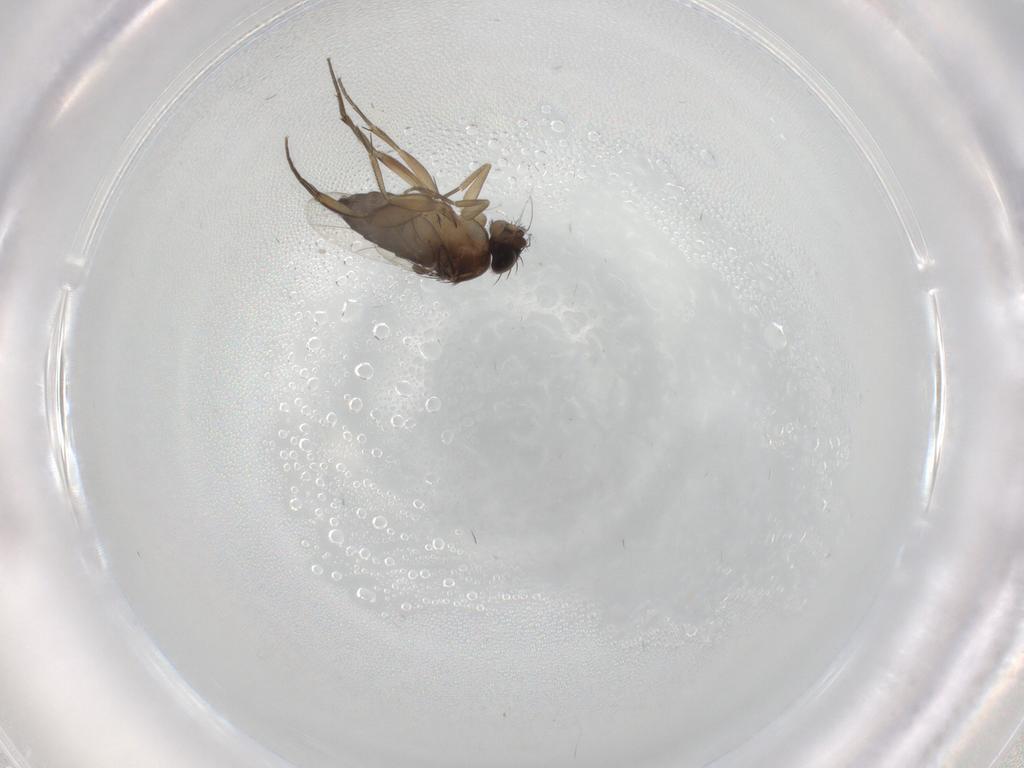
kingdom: Animalia
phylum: Arthropoda
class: Insecta
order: Diptera
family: Phoridae
